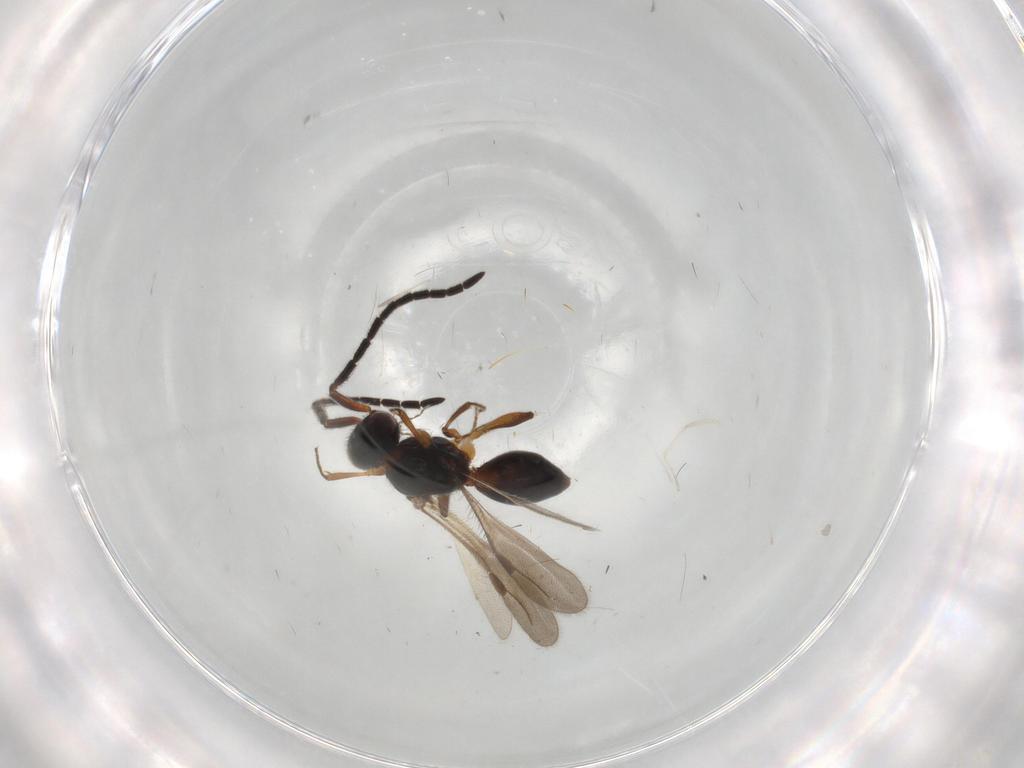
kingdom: Animalia
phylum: Arthropoda
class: Insecta
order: Hymenoptera
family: Megaspilidae
